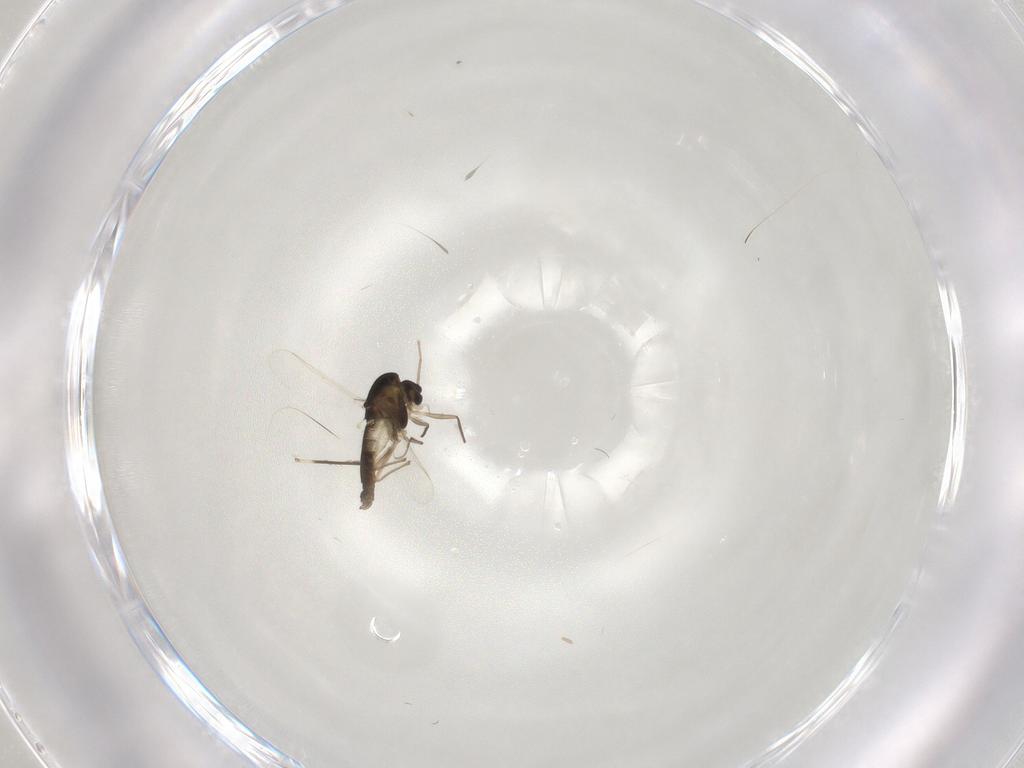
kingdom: Animalia
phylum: Arthropoda
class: Insecta
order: Diptera
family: Chironomidae
